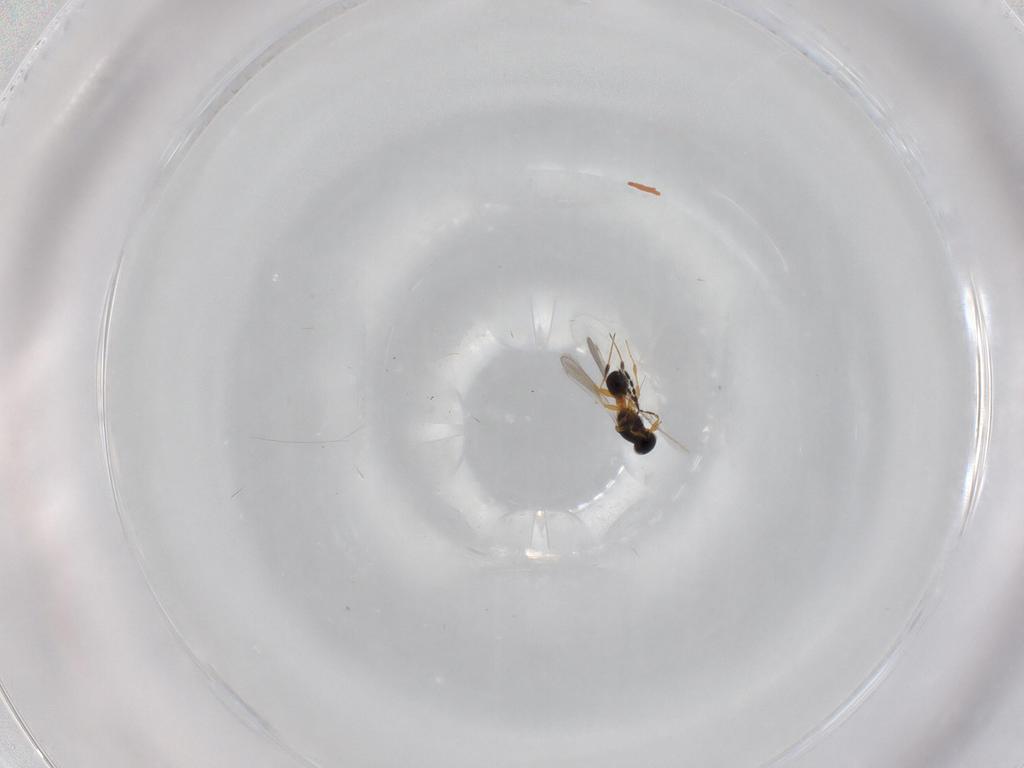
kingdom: Animalia
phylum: Arthropoda
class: Insecta
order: Hymenoptera
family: Platygastridae
